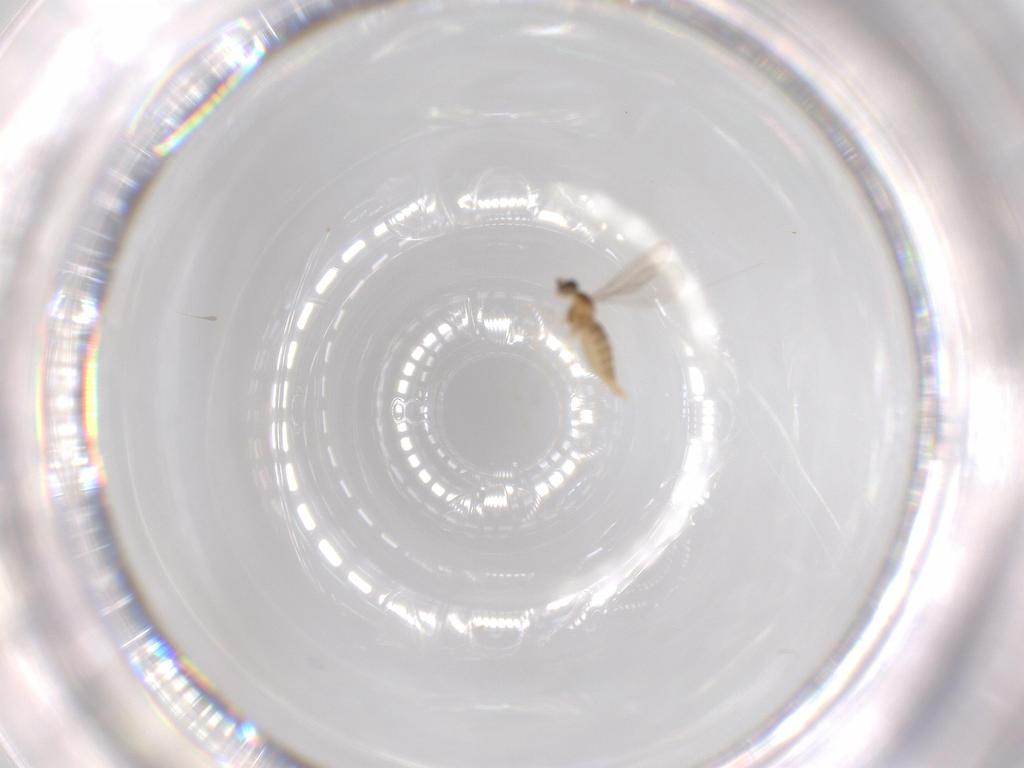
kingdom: Animalia
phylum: Arthropoda
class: Insecta
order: Diptera
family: Cecidomyiidae
